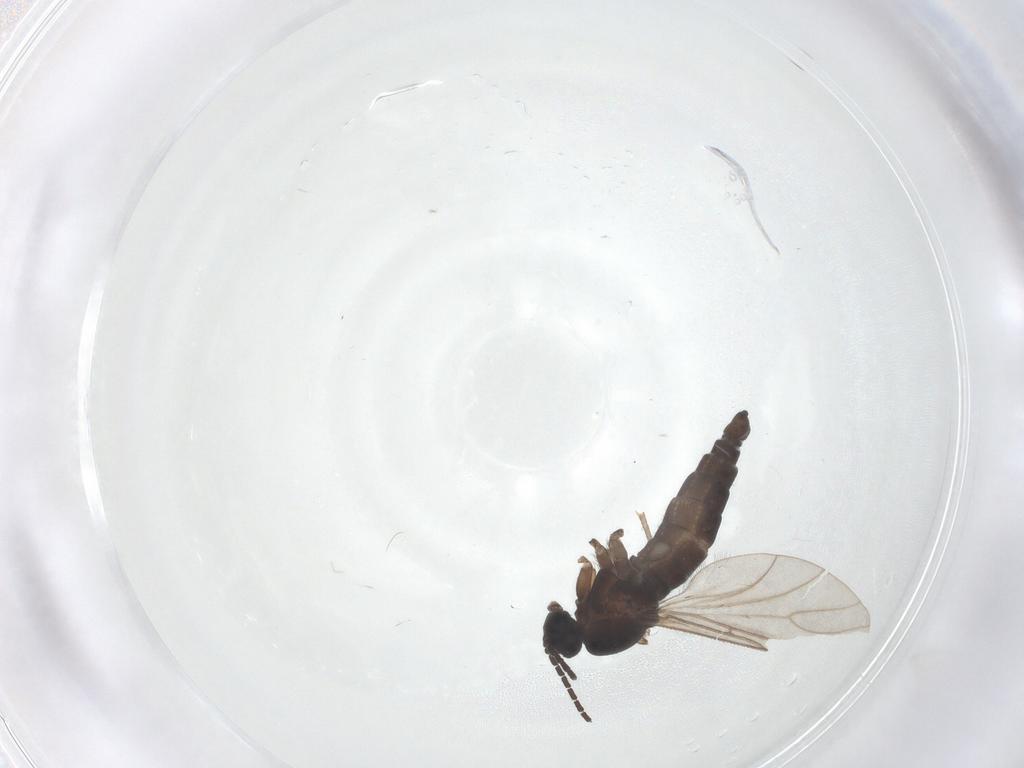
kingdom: Animalia
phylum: Arthropoda
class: Insecta
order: Diptera
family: Sciaridae
